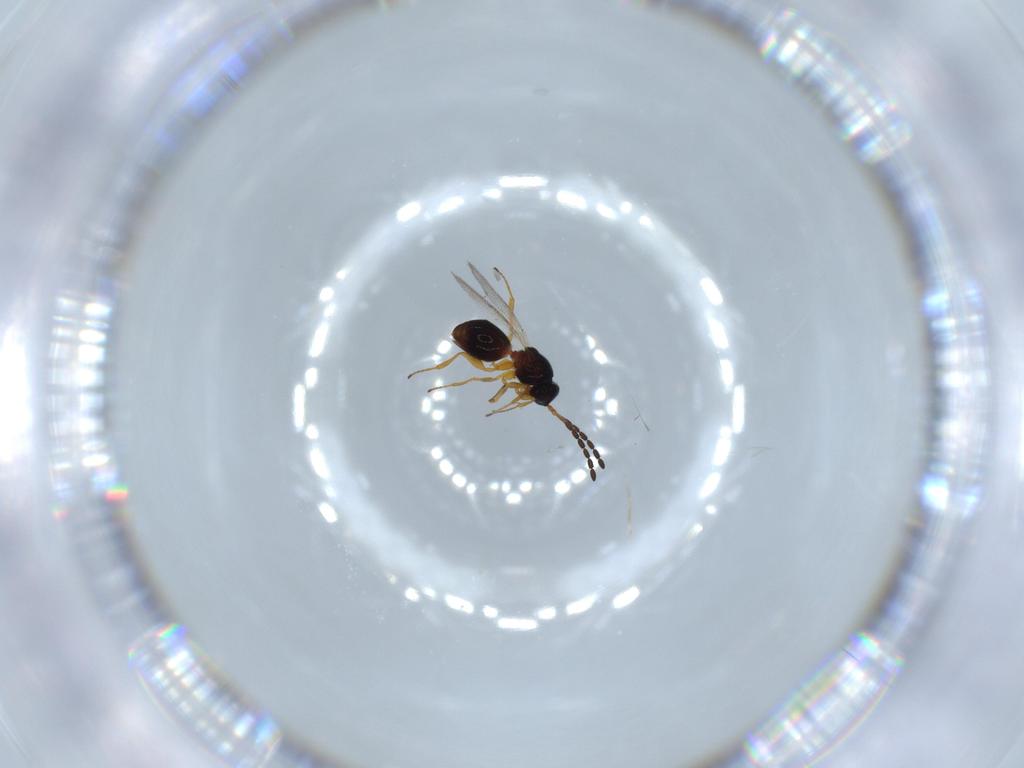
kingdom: Animalia
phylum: Arthropoda
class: Insecta
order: Hymenoptera
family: Figitidae
